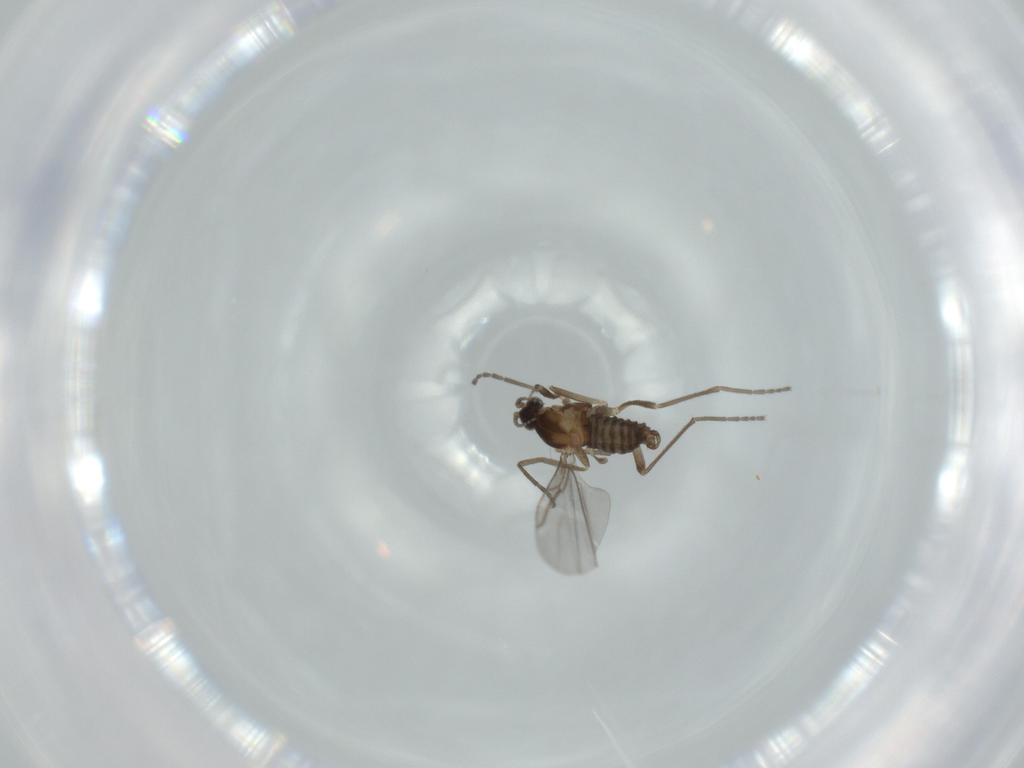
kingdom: Animalia
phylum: Arthropoda
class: Insecta
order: Diptera
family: Cecidomyiidae
